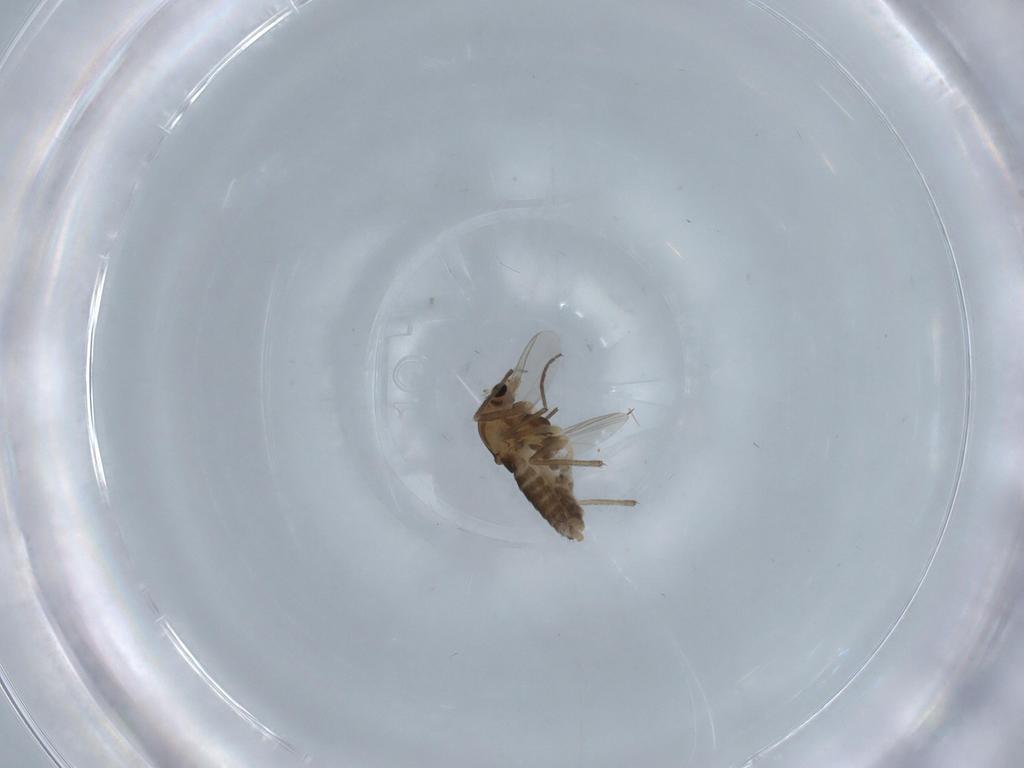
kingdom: Animalia
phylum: Arthropoda
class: Insecta
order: Diptera
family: Chironomidae
